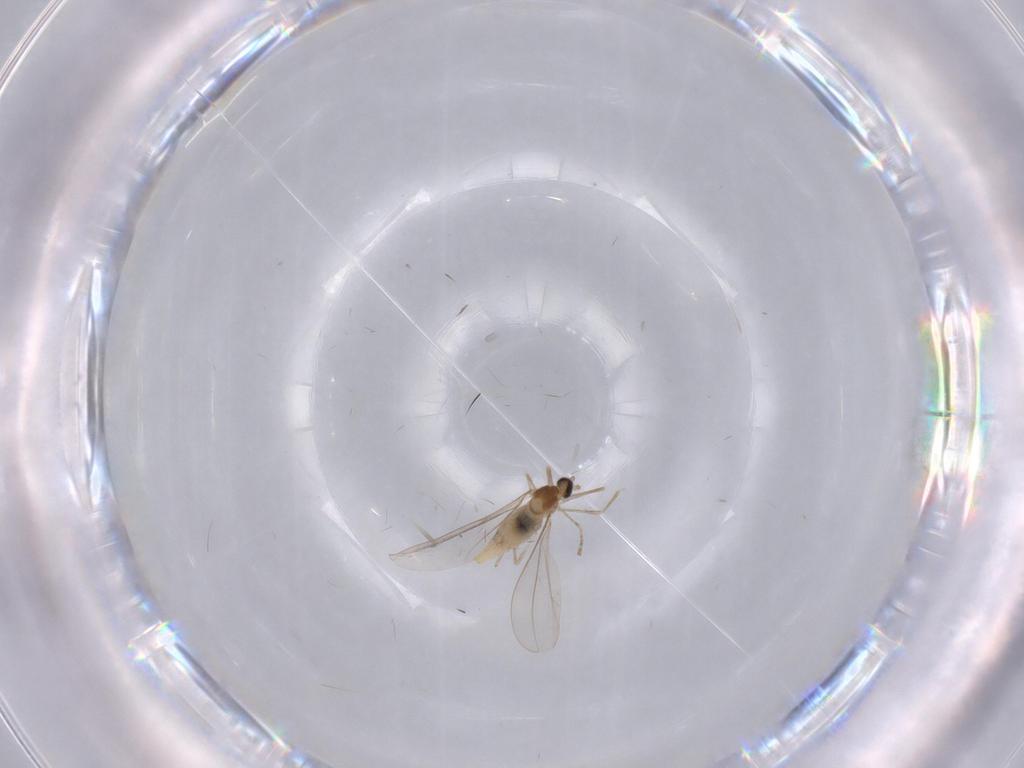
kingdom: Animalia
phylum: Arthropoda
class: Insecta
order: Diptera
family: Cecidomyiidae
